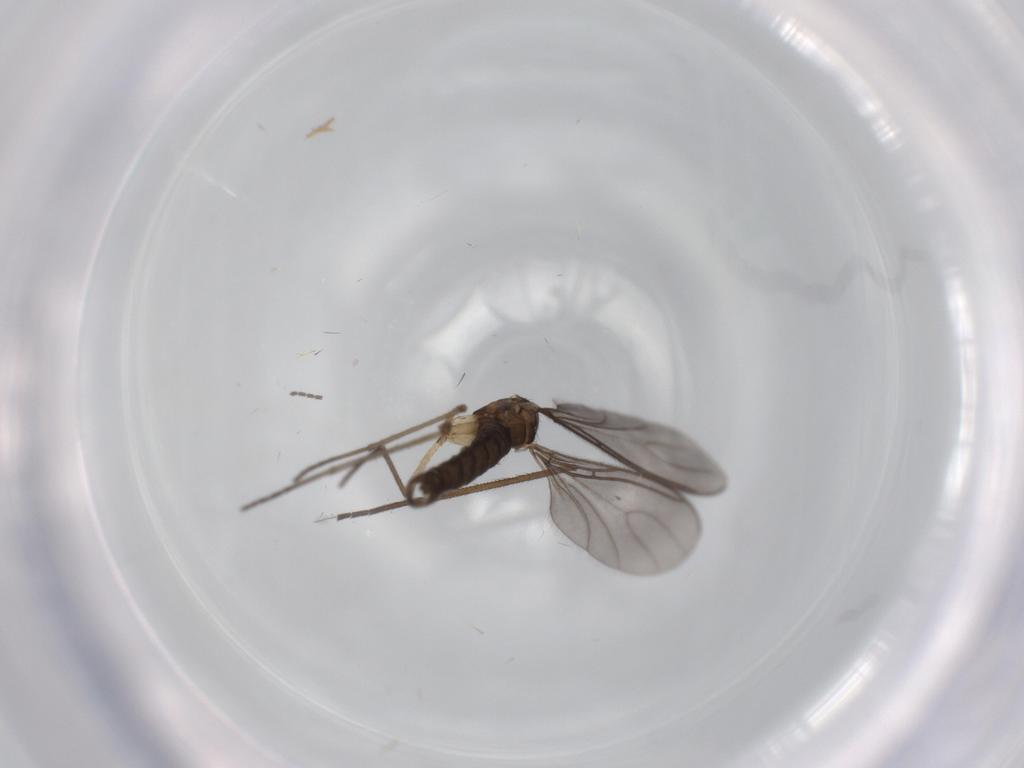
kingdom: Animalia
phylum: Arthropoda
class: Insecta
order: Diptera
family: Sciaridae
